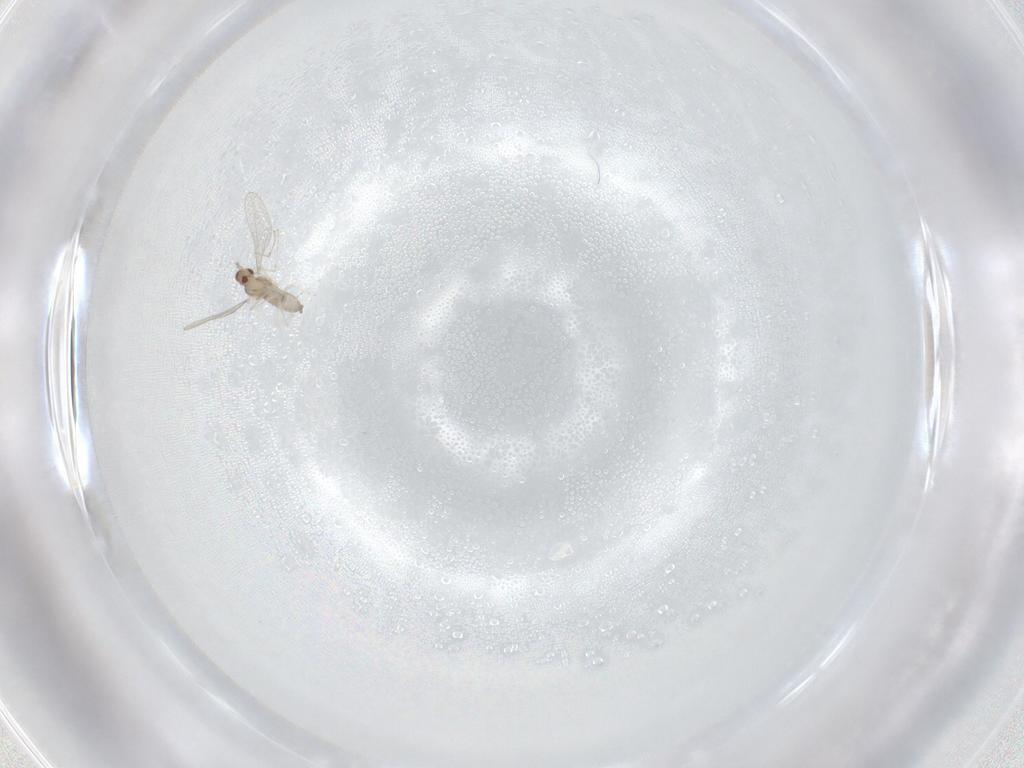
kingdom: Animalia
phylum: Arthropoda
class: Insecta
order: Diptera
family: Cecidomyiidae
